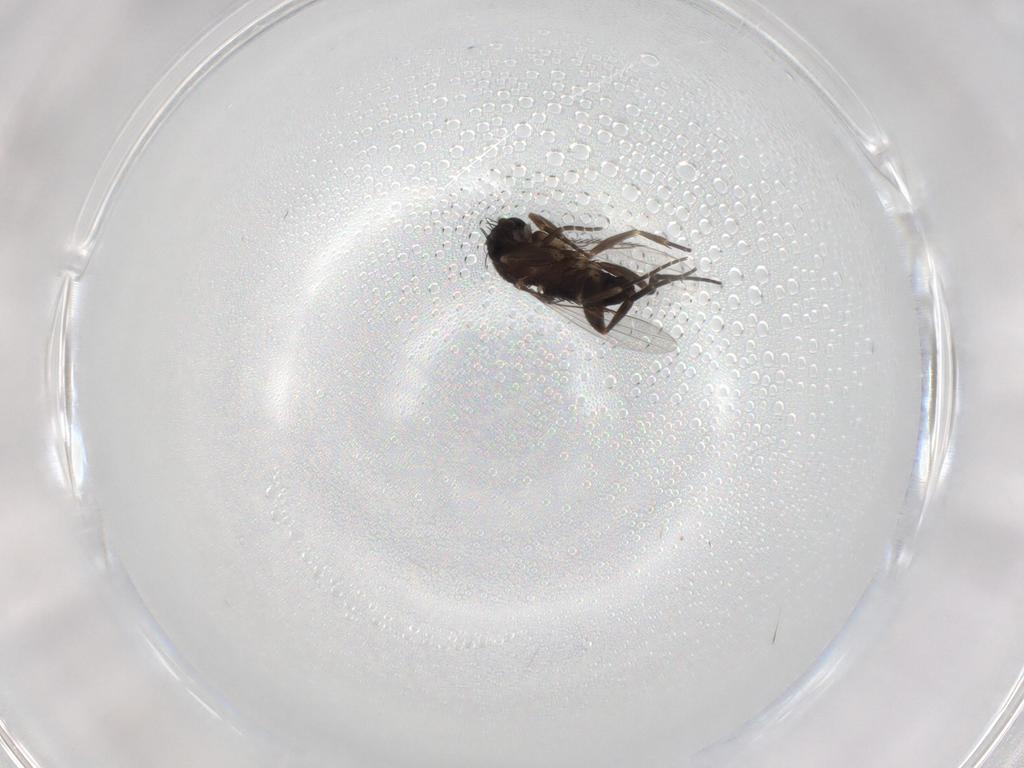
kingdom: Animalia
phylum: Arthropoda
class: Insecta
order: Diptera
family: Phoridae
